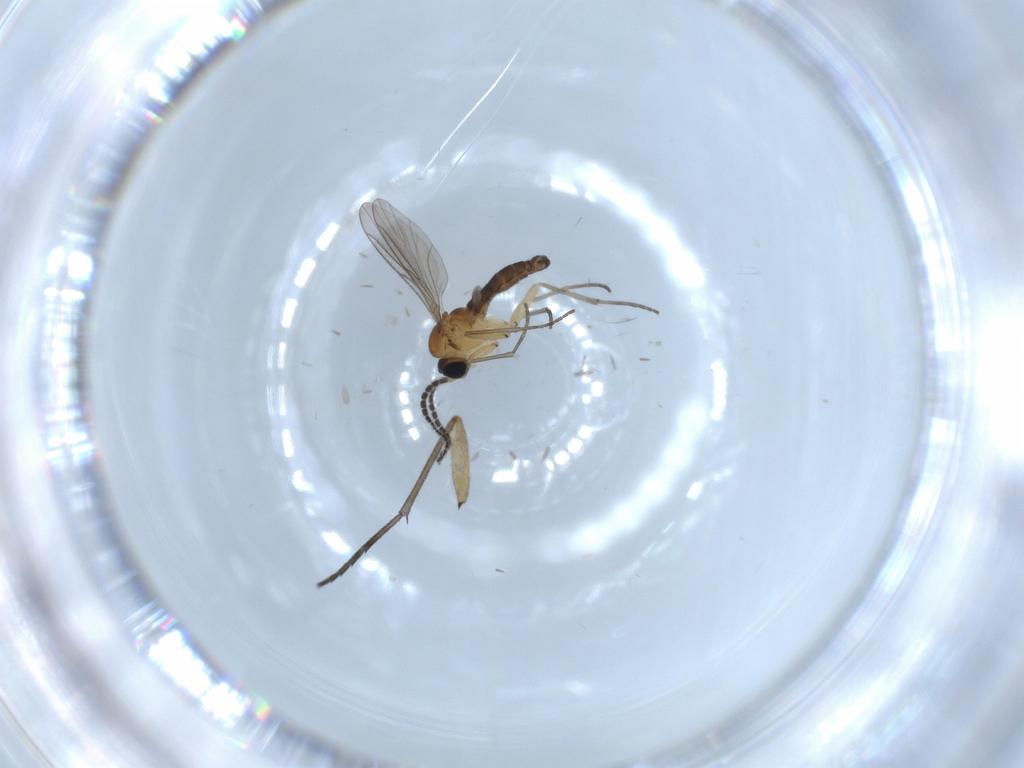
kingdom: Animalia
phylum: Arthropoda
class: Insecta
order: Diptera
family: Sciaridae
